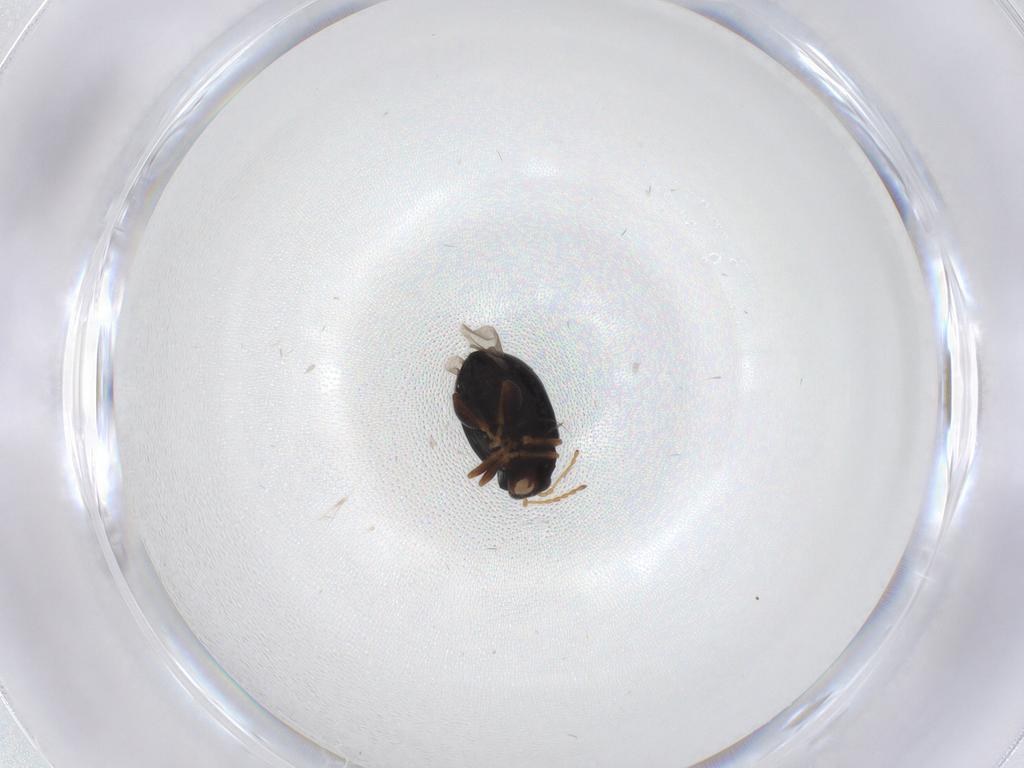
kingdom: Animalia
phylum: Arthropoda
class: Insecta
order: Coleoptera
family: Chrysomelidae
